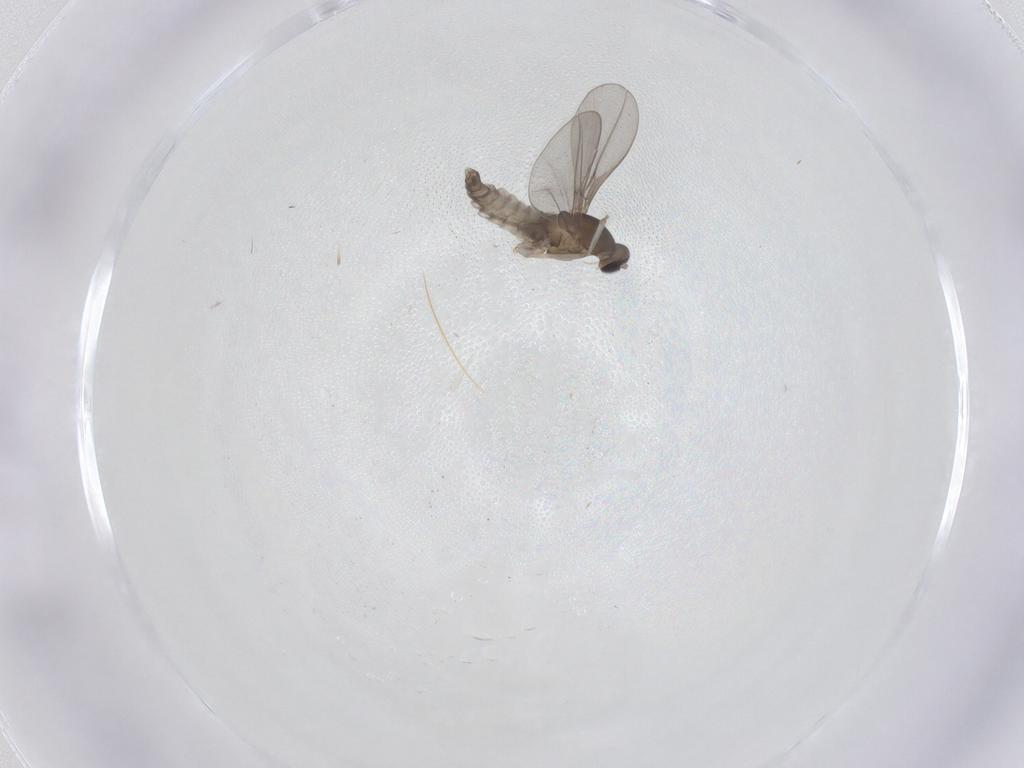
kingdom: Animalia
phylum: Arthropoda
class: Insecta
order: Diptera
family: Cecidomyiidae
